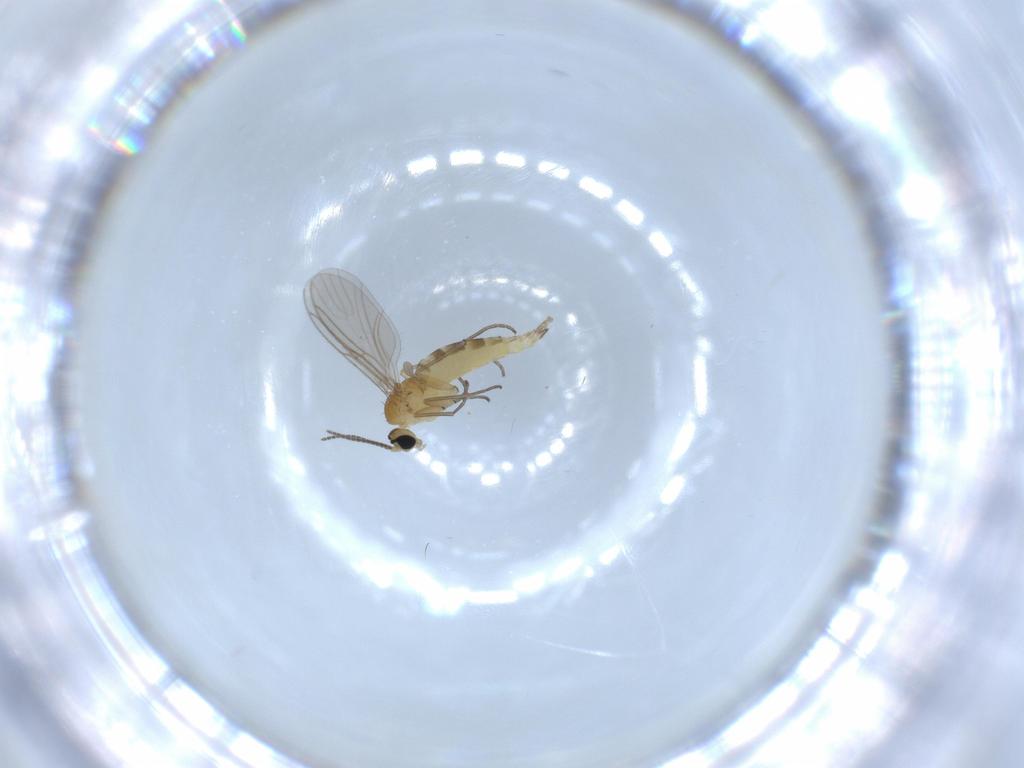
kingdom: Animalia
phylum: Arthropoda
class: Insecta
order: Diptera
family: Sciaridae
